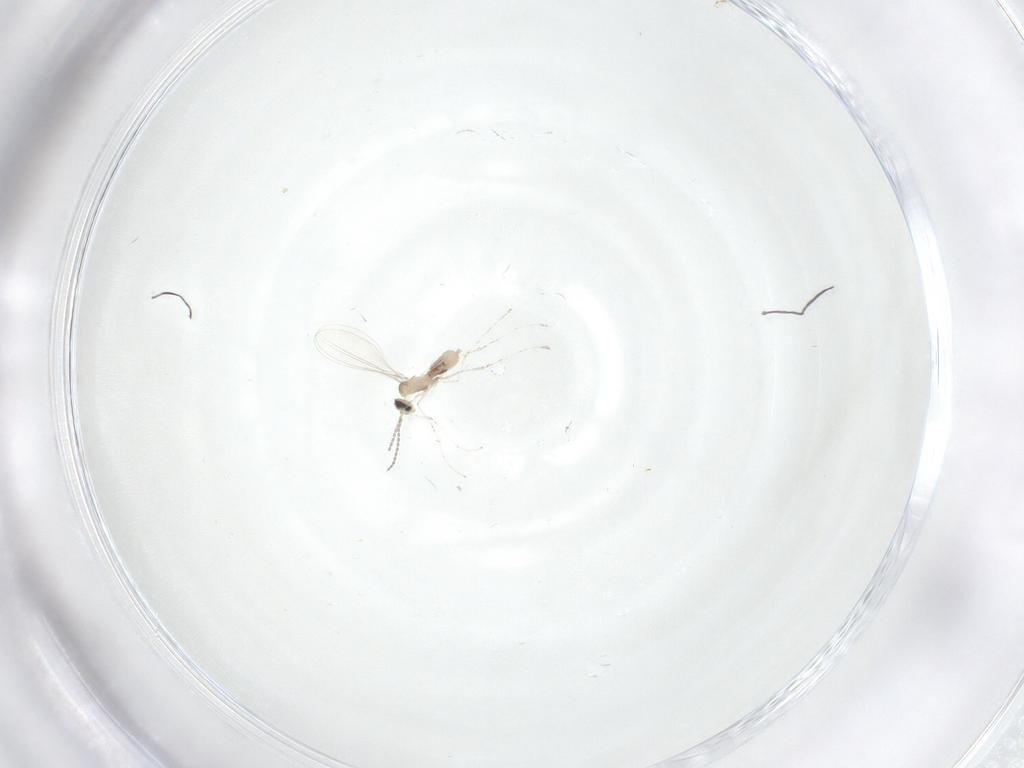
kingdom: Animalia
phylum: Arthropoda
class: Insecta
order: Diptera
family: Cecidomyiidae
